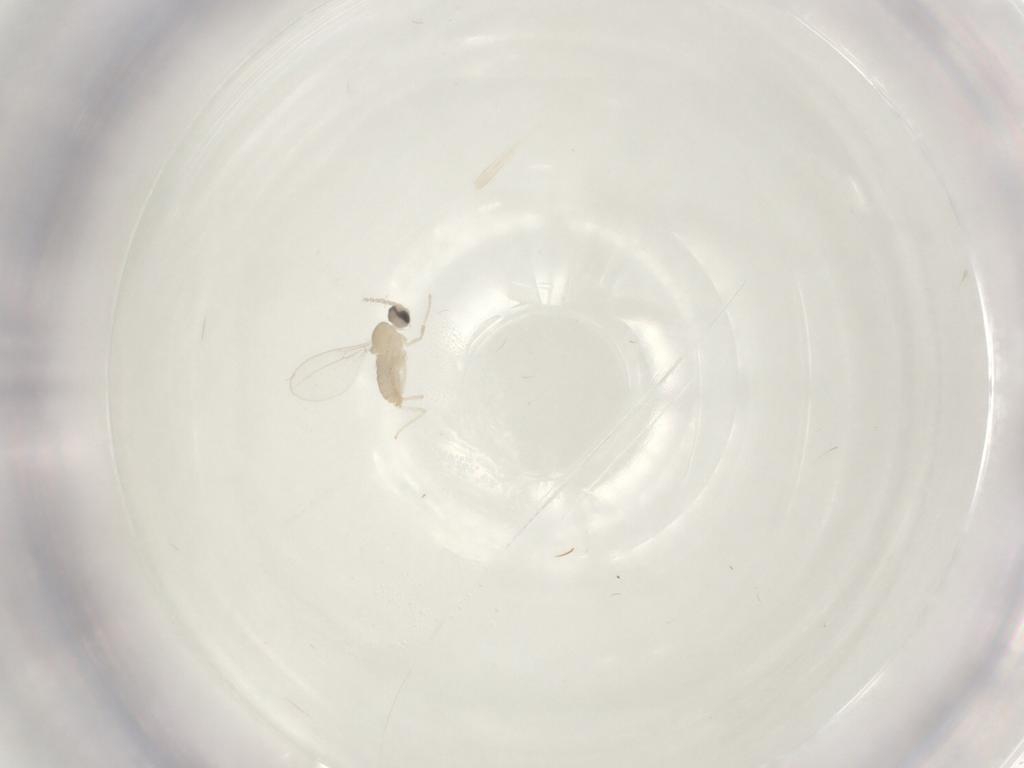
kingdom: Animalia
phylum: Arthropoda
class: Insecta
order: Diptera
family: Cecidomyiidae
